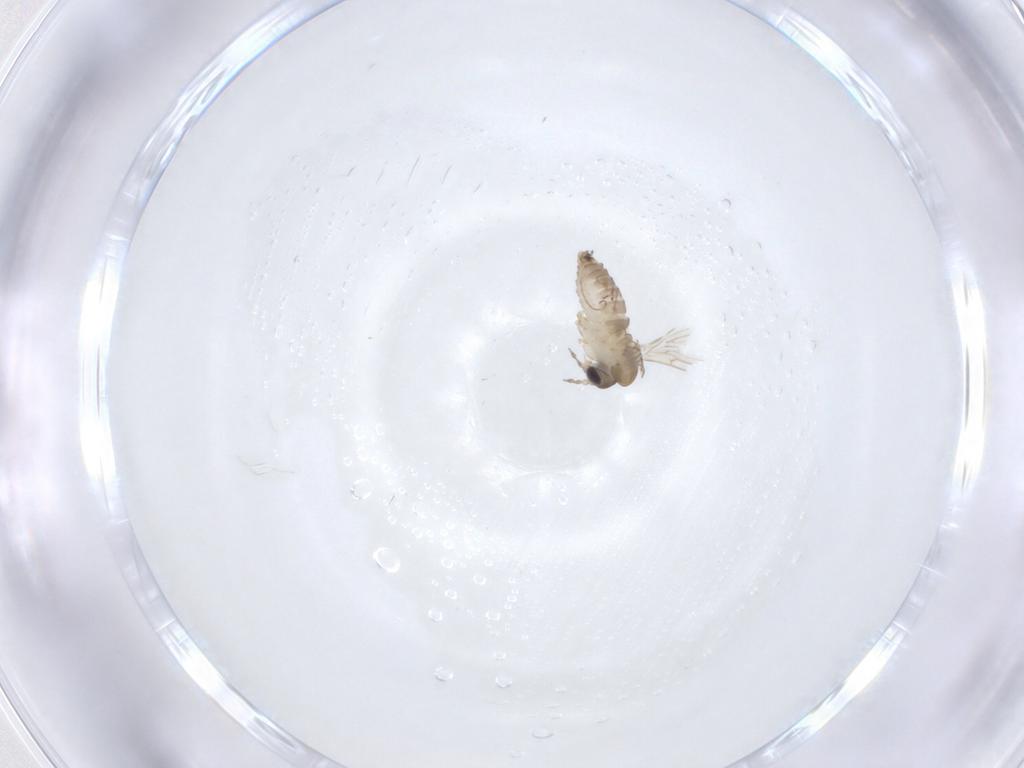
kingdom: Animalia
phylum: Arthropoda
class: Insecta
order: Diptera
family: Psychodidae
